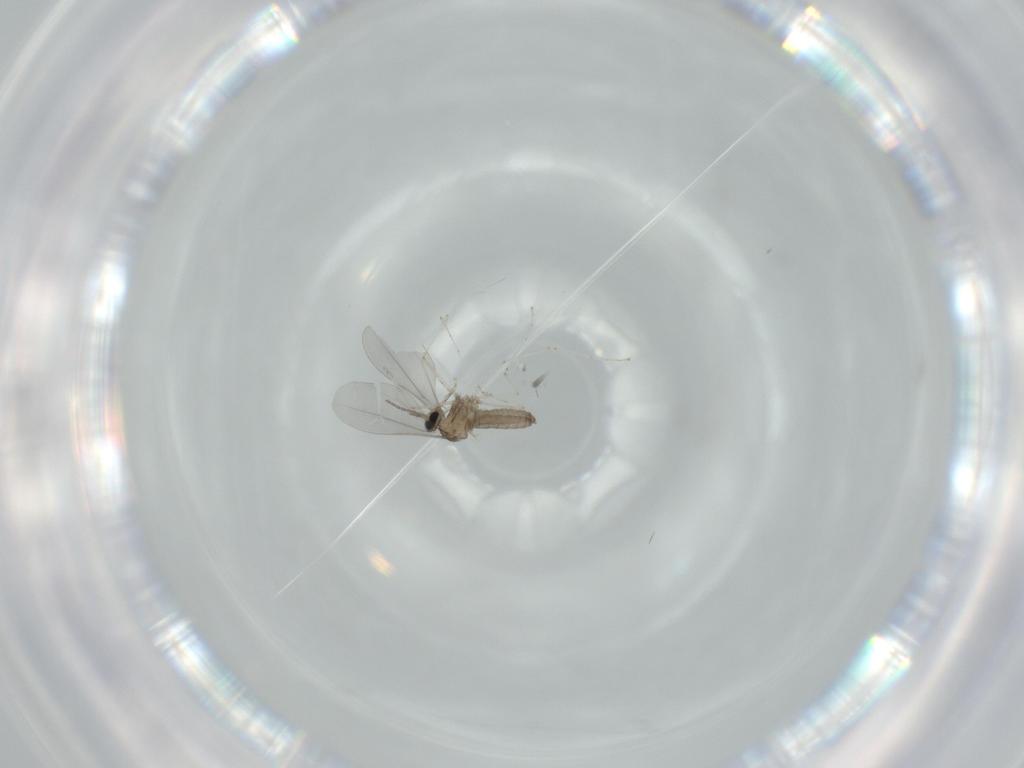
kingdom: Animalia
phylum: Arthropoda
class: Insecta
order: Diptera
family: Cecidomyiidae
